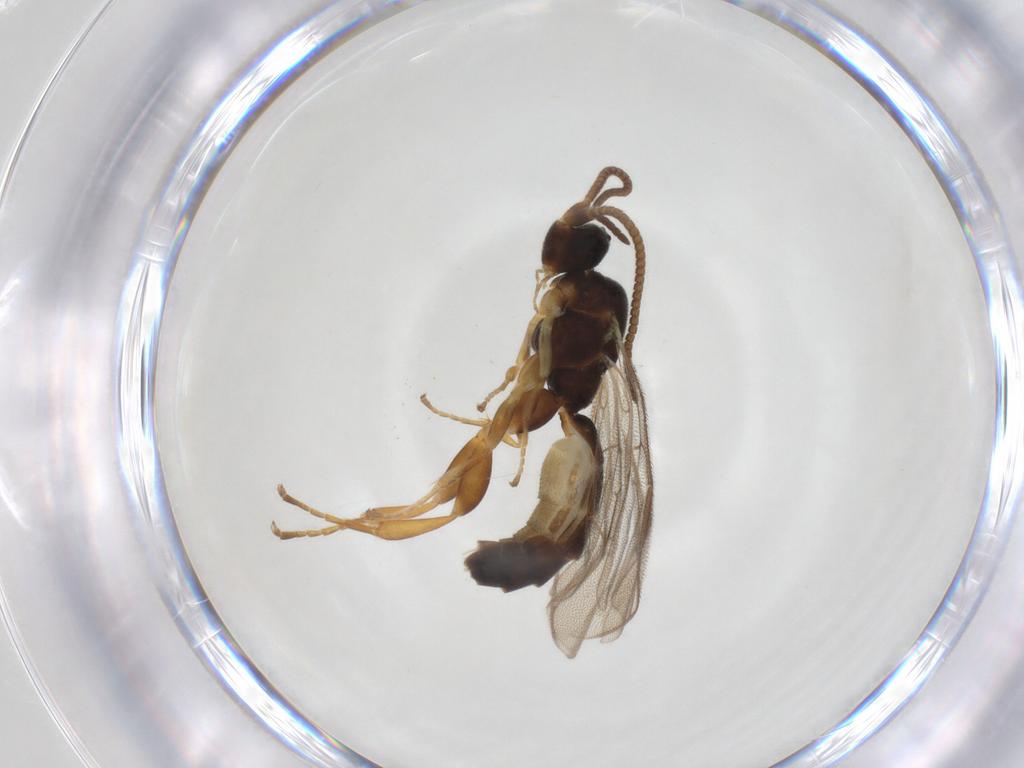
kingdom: Animalia
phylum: Arthropoda
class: Insecta
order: Hymenoptera
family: Ichneumonidae
